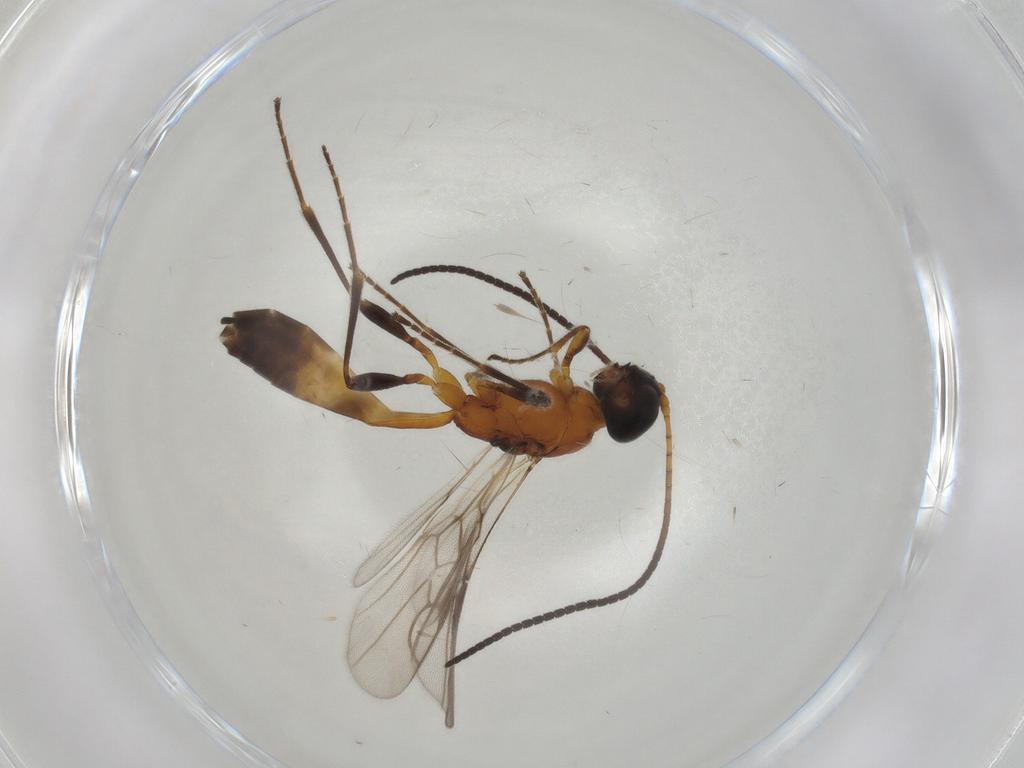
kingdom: Animalia
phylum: Arthropoda
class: Insecta
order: Hymenoptera
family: Braconidae
